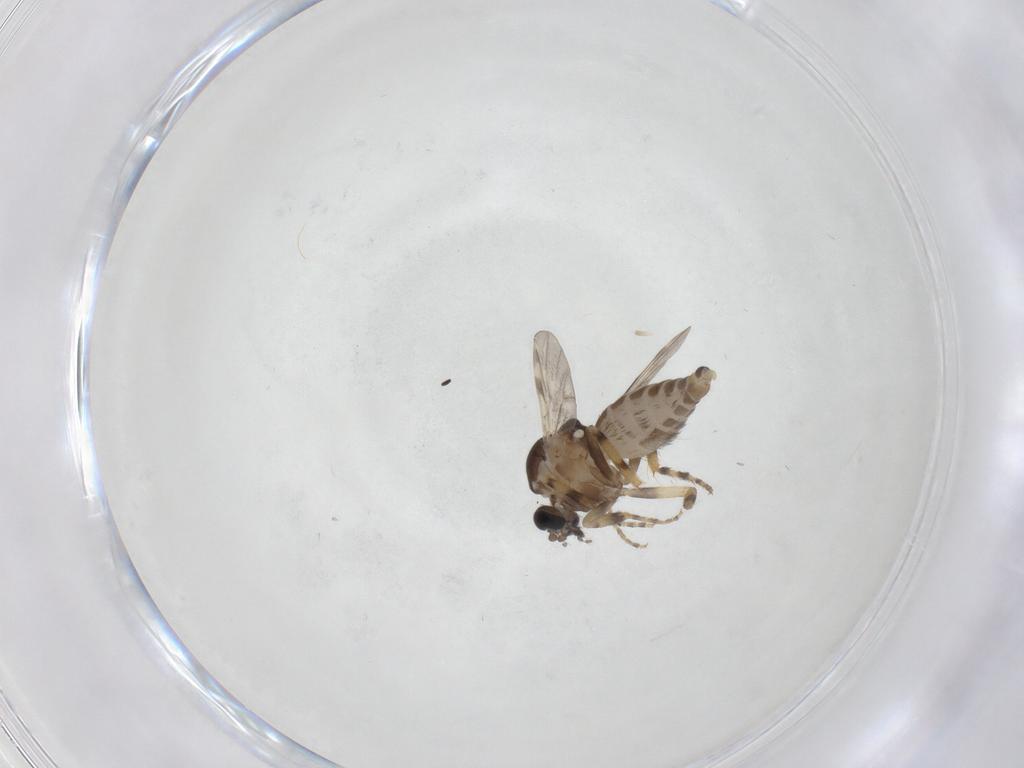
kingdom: Animalia
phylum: Arthropoda
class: Insecta
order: Diptera
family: Ceratopogonidae
